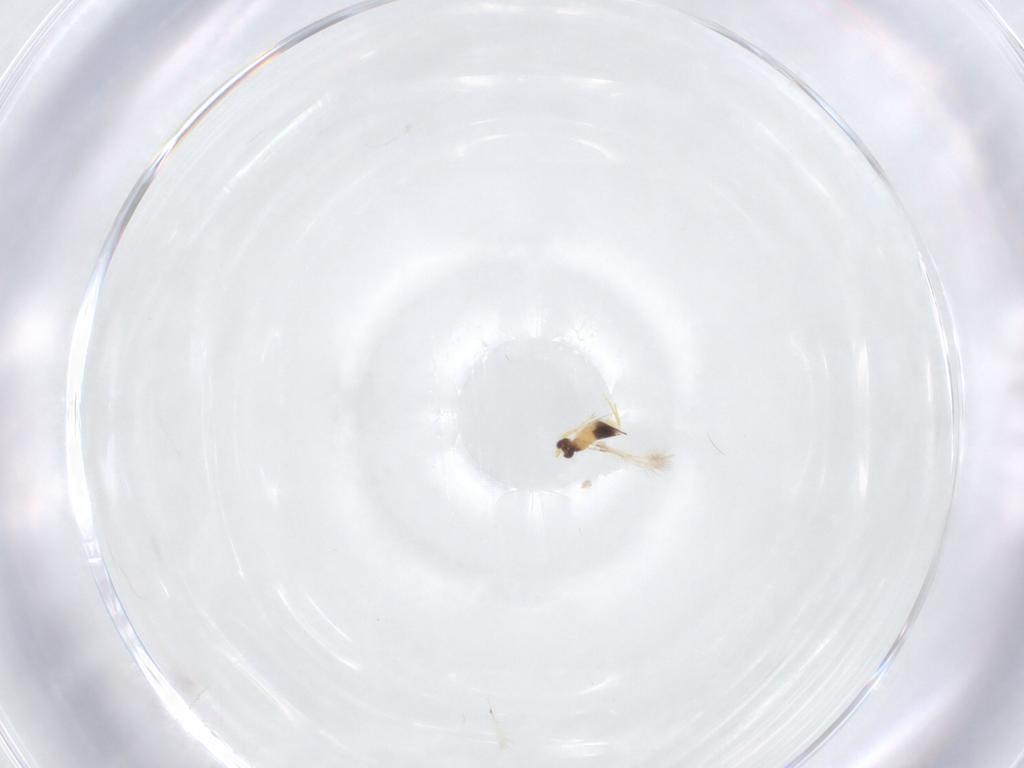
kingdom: Animalia
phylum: Arthropoda
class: Insecta
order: Hymenoptera
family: Mymaridae
